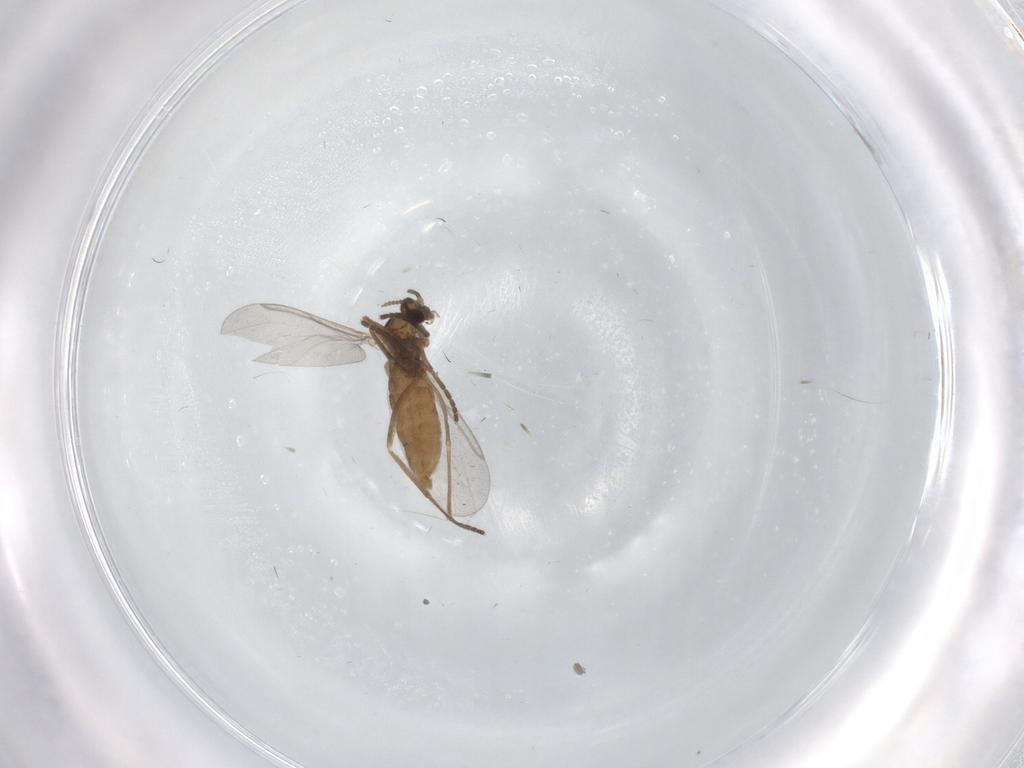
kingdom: Animalia
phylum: Arthropoda
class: Insecta
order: Diptera
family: Cecidomyiidae
